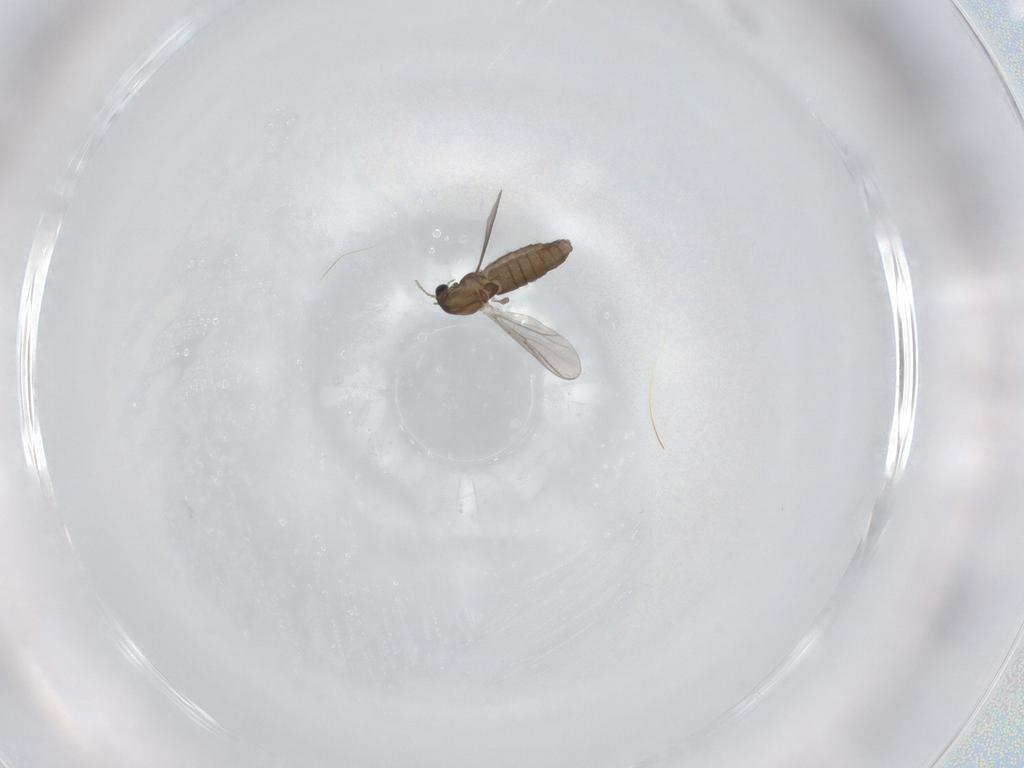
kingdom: Animalia
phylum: Arthropoda
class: Insecta
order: Diptera
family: Chironomidae
